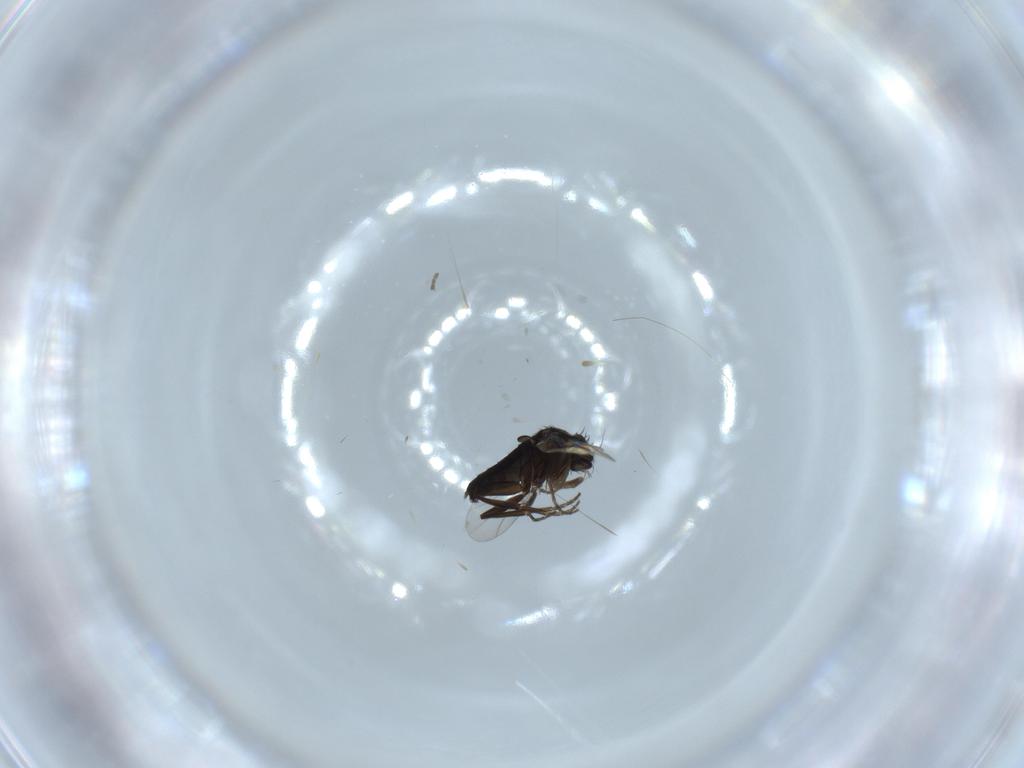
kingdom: Animalia
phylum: Arthropoda
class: Insecta
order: Diptera
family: Phoridae
